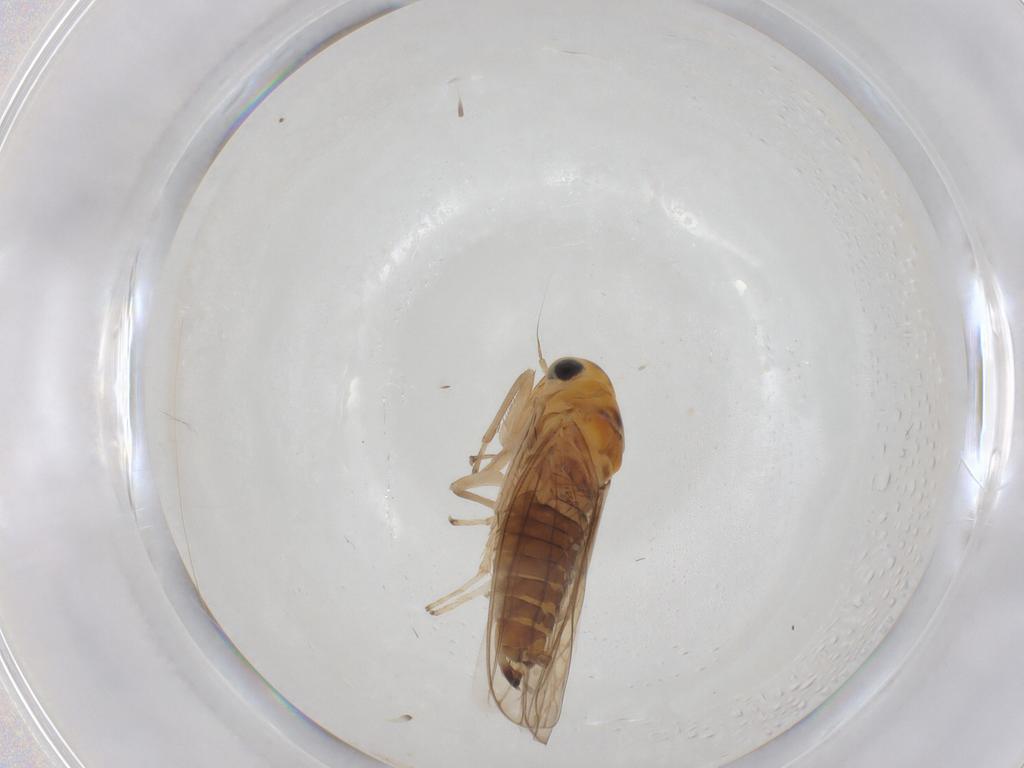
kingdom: Animalia
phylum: Arthropoda
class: Insecta
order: Hemiptera
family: Cicadellidae
